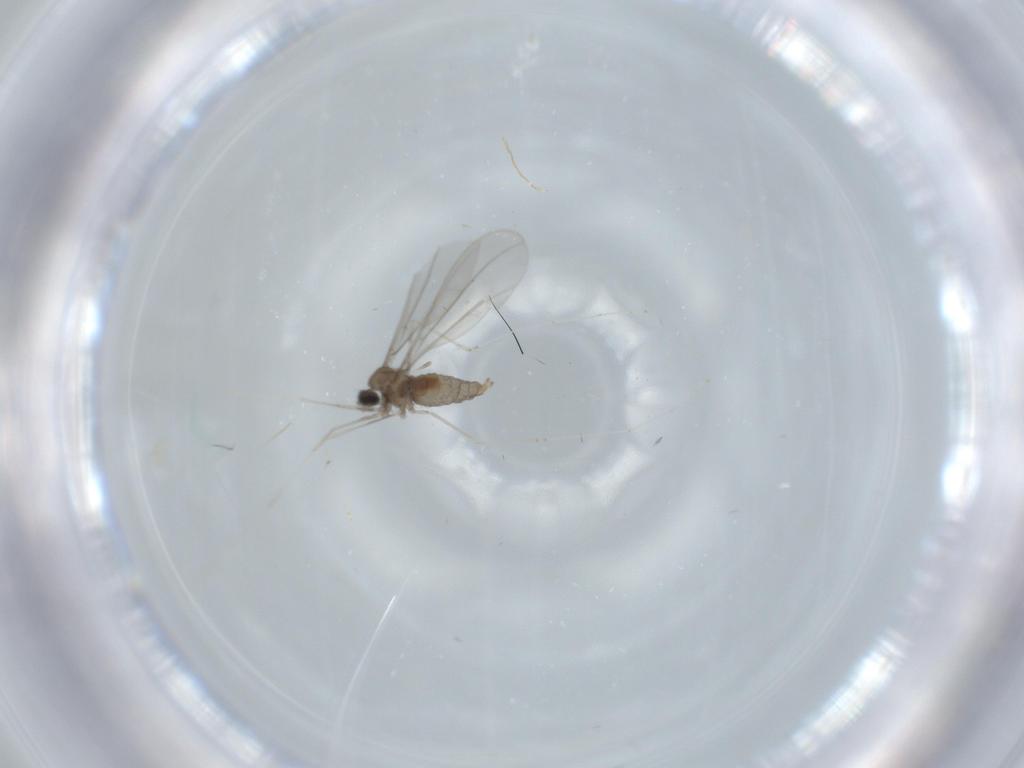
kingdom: Animalia
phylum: Arthropoda
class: Insecta
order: Diptera
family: Cecidomyiidae
